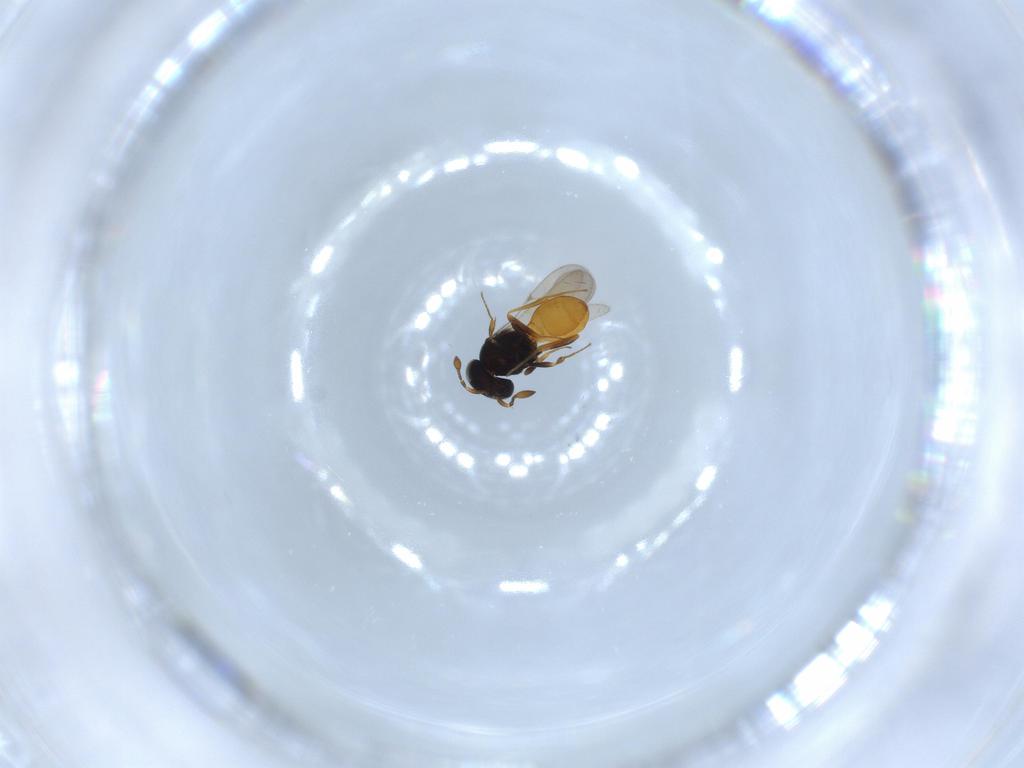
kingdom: Animalia
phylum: Arthropoda
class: Insecta
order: Hymenoptera
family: Scelionidae
